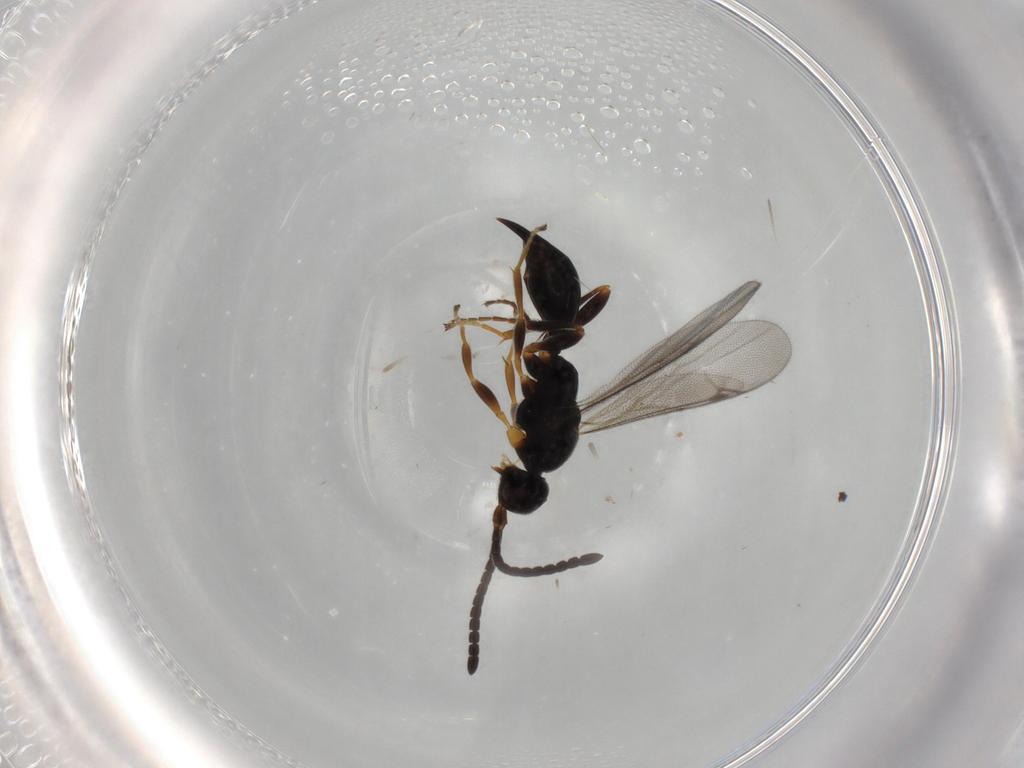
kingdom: Animalia
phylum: Arthropoda
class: Insecta
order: Hymenoptera
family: Proctotrupidae
